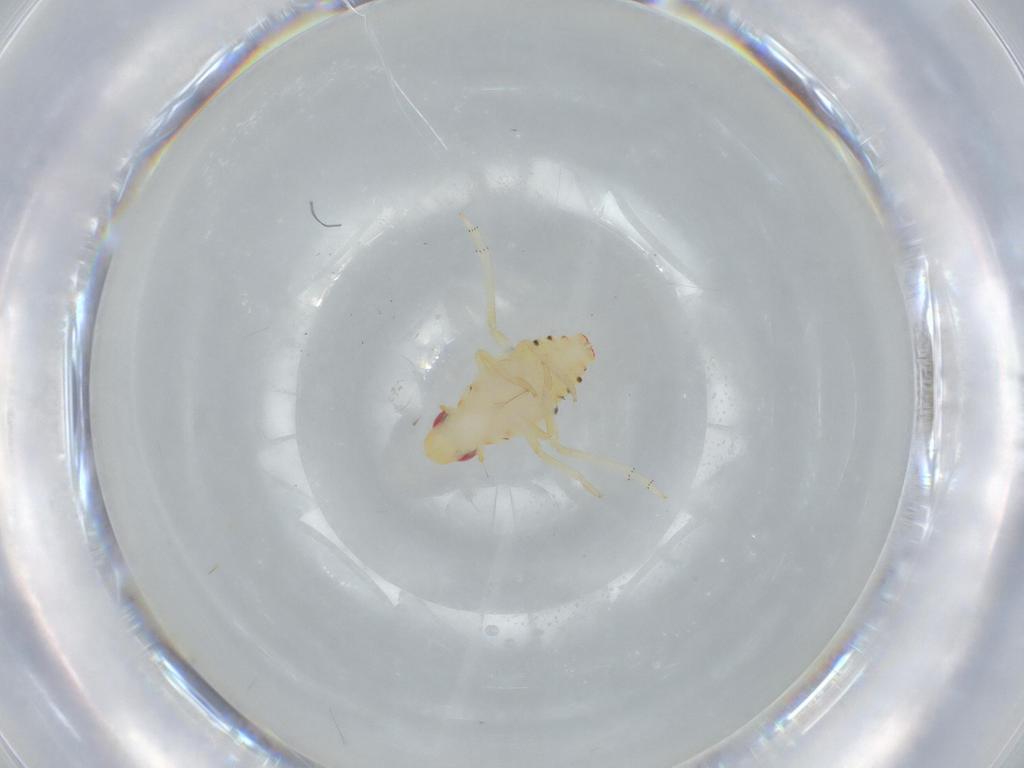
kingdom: Animalia
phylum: Arthropoda
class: Insecta
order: Hemiptera
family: Tropiduchidae
